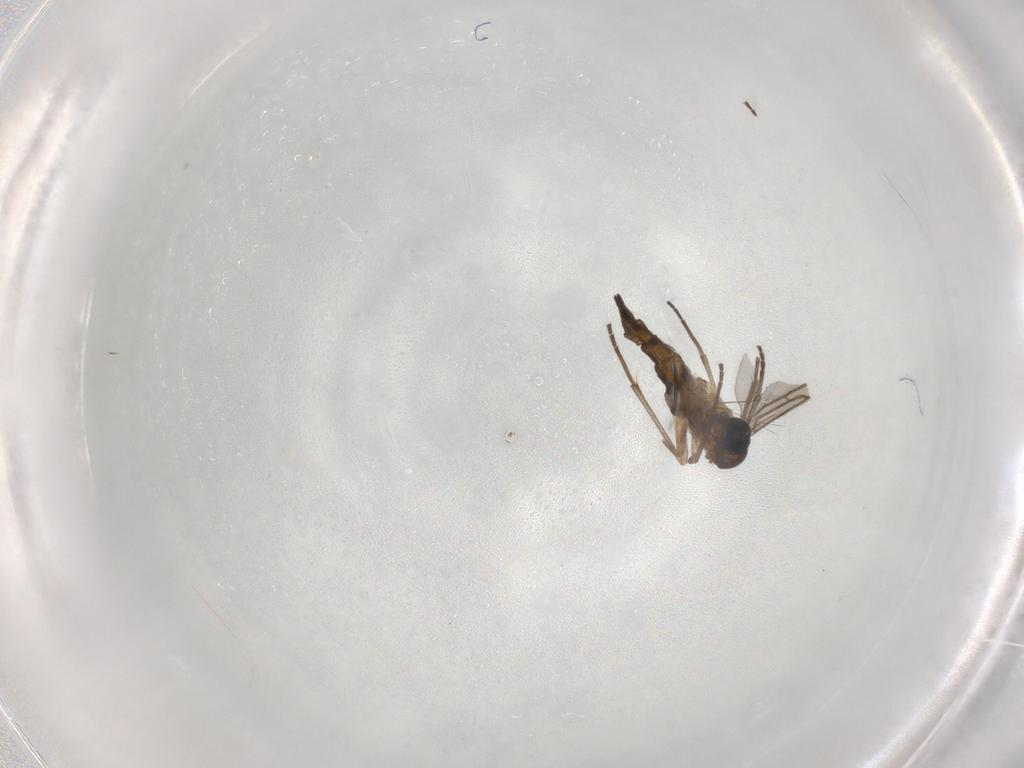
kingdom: Animalia
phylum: Arthropoda
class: Insecta
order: Diptera
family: Sciaridae
